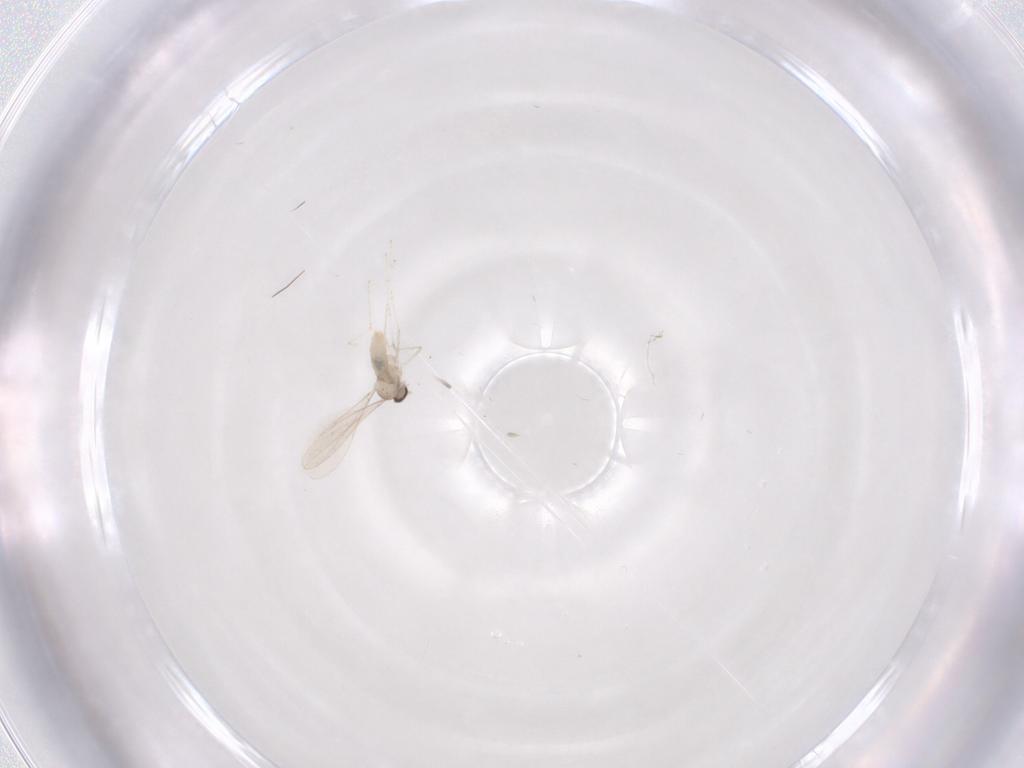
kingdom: Animalia
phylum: Arthropoda
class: Insecta
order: Diptera
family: Cecidomyiidae
